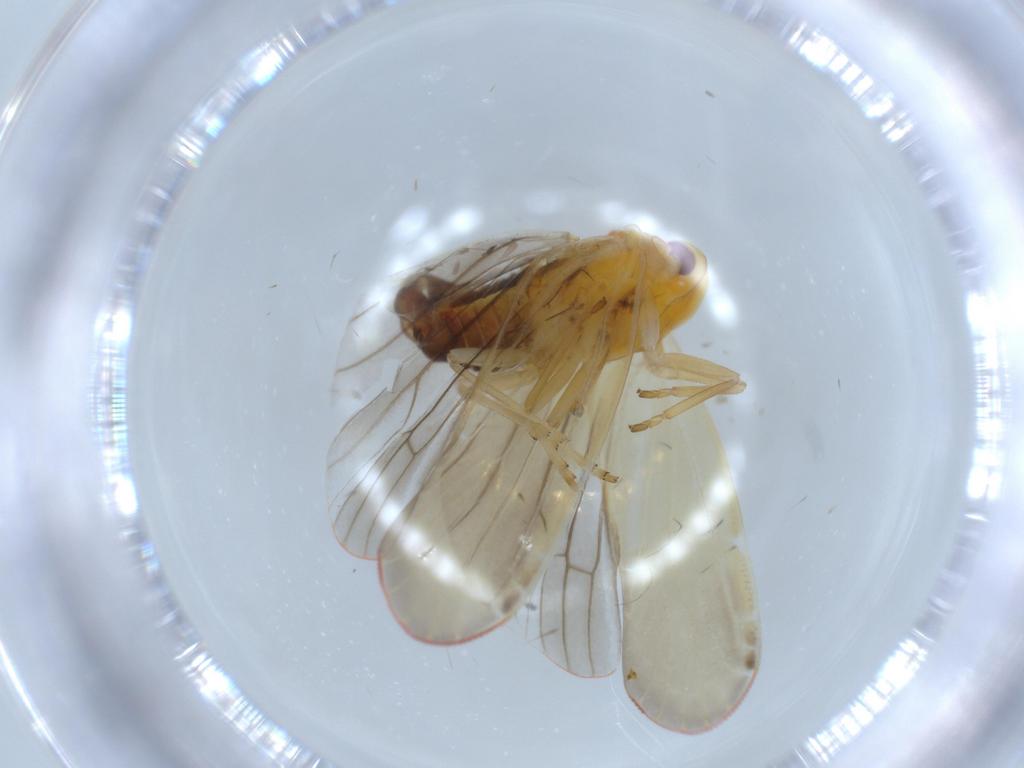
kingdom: Animalia
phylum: Arthropoda
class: Insecta
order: Hemiptera
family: Derbidae
